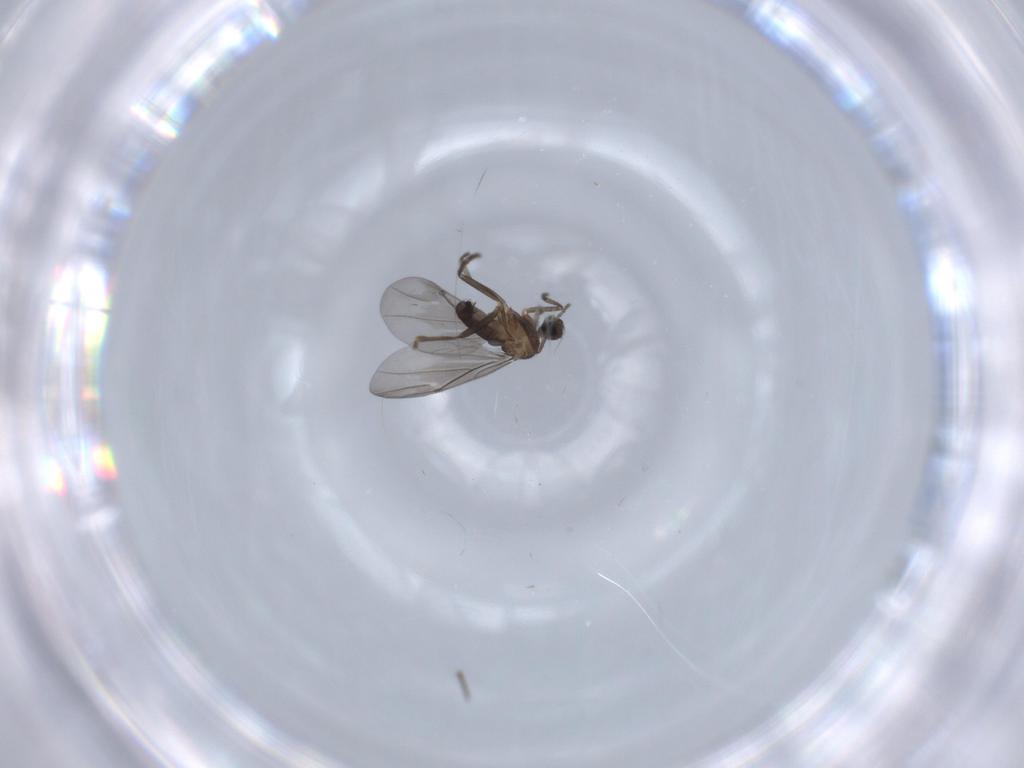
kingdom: Animalia
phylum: Arthropoda
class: Insecta
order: Diptera
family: Phoridae
